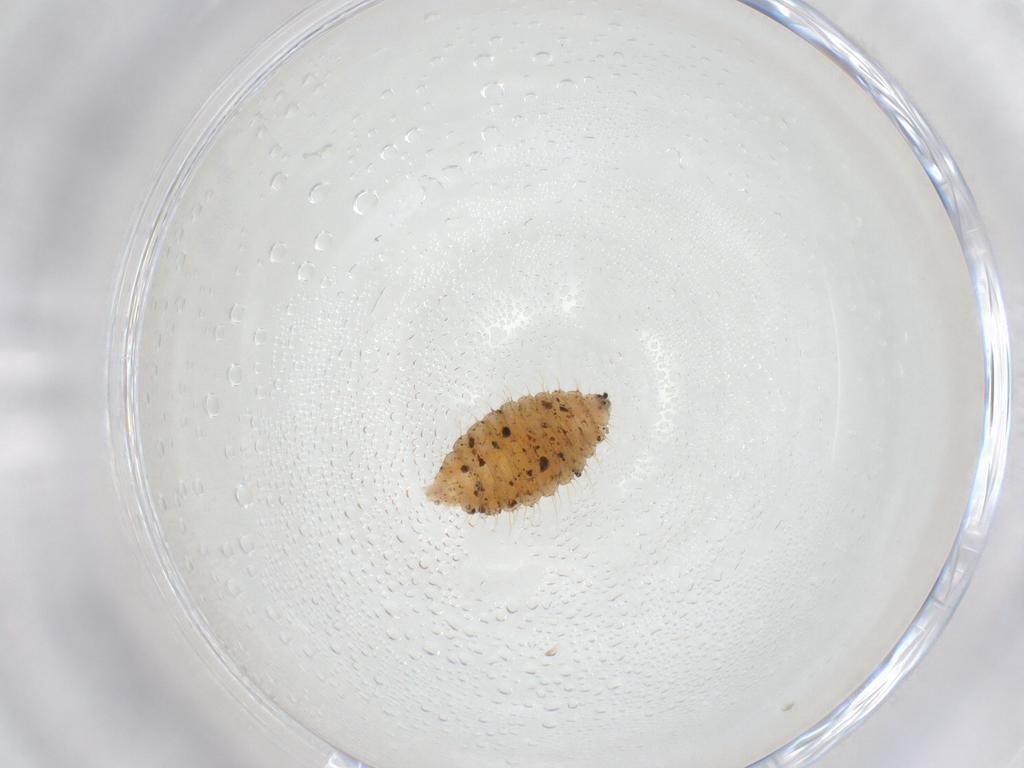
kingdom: Animalia
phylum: Arthropoda
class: Insecta
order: Diptera
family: Cecidomyiidae
